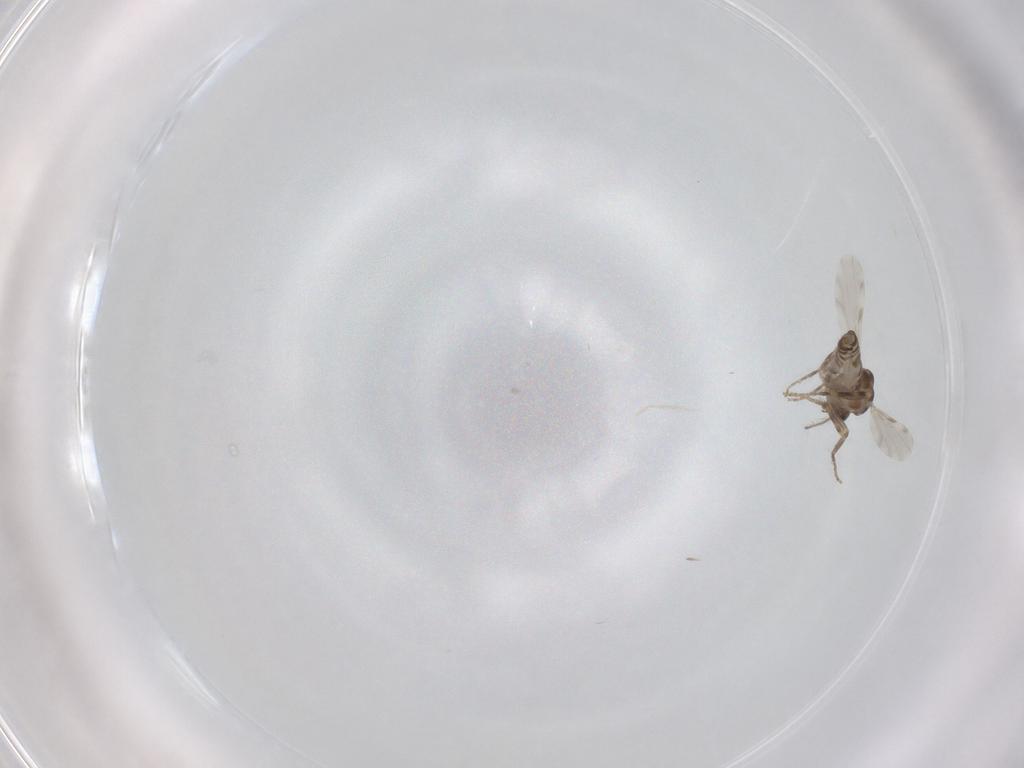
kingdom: Animalia
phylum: Arthropoda
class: Insecta
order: Diptera
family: Ceratopogonidae
